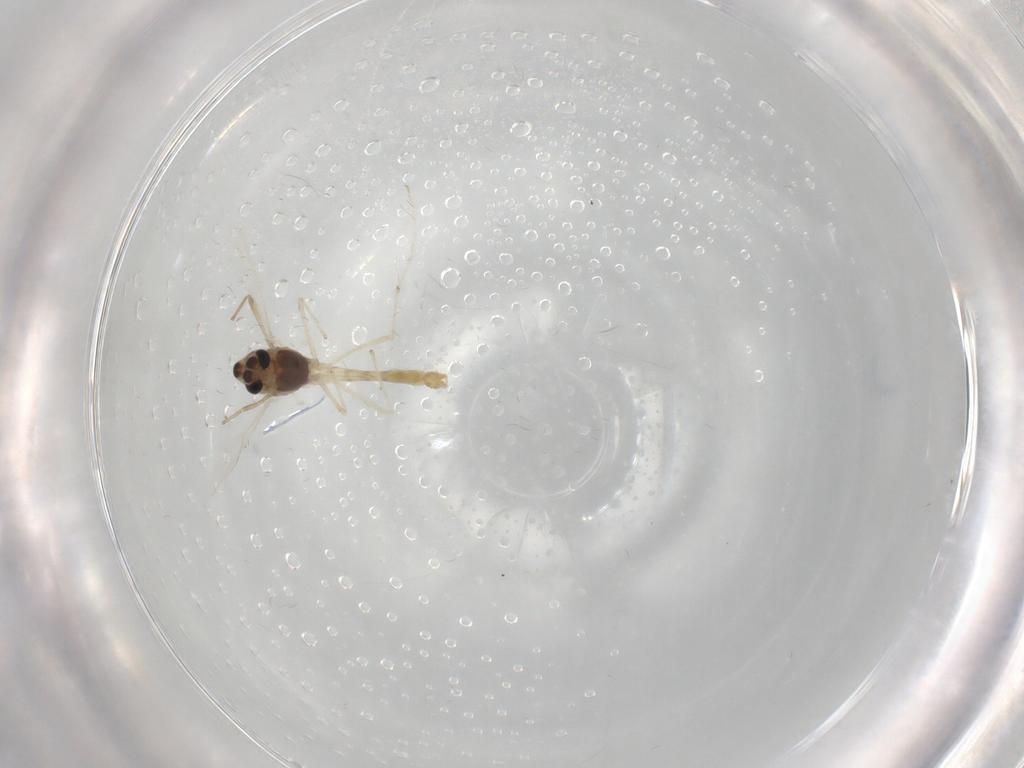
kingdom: Animalia
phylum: Arthropoda
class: Insecta
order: Diptera
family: Chironomidae
